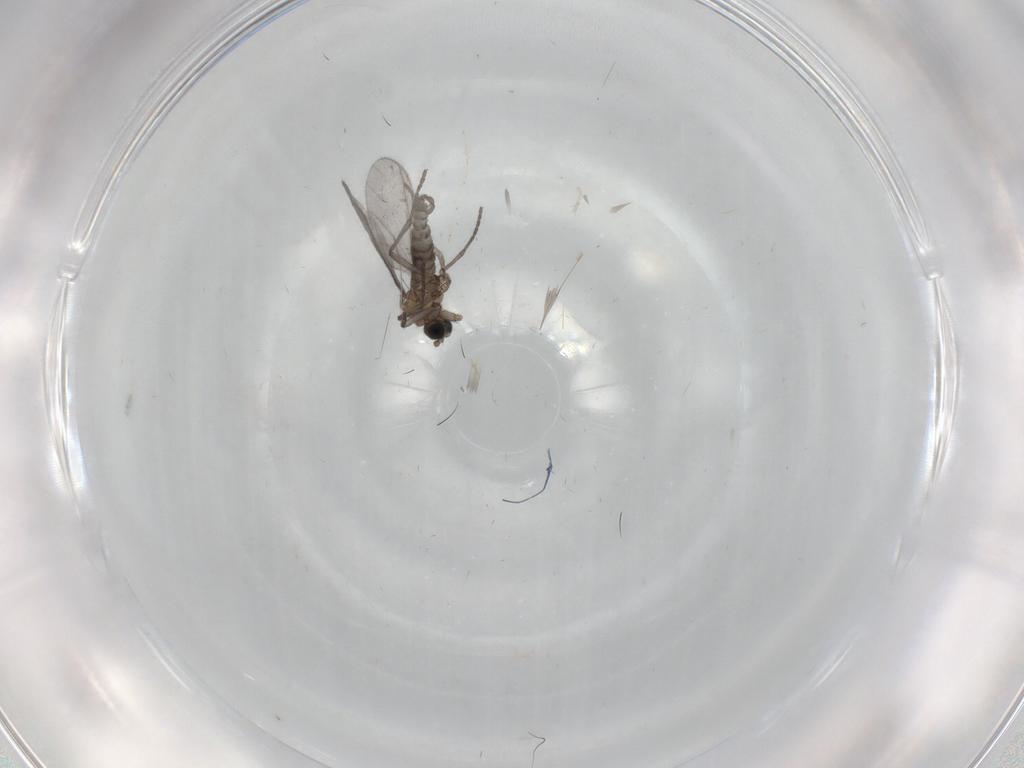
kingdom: Animalia
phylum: Arthropoda
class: Insecta
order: Diptera
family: Sciaridae
